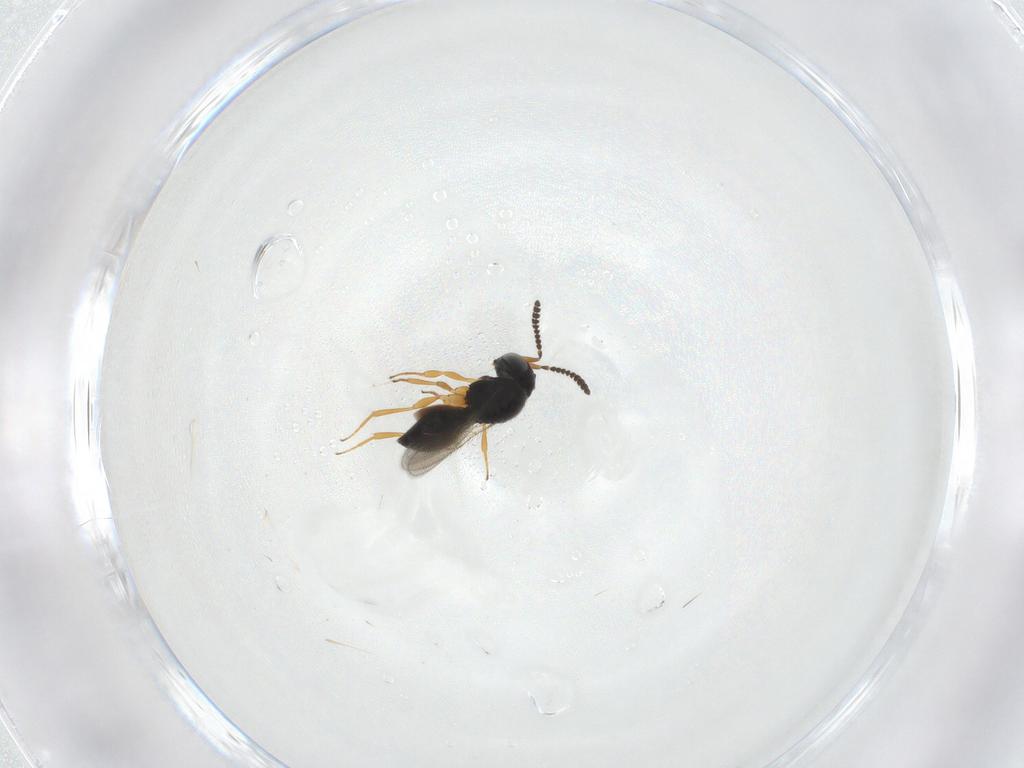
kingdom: Animalia
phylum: Arthropoda
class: Insecta
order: Hymenoptera
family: Scelionidae
